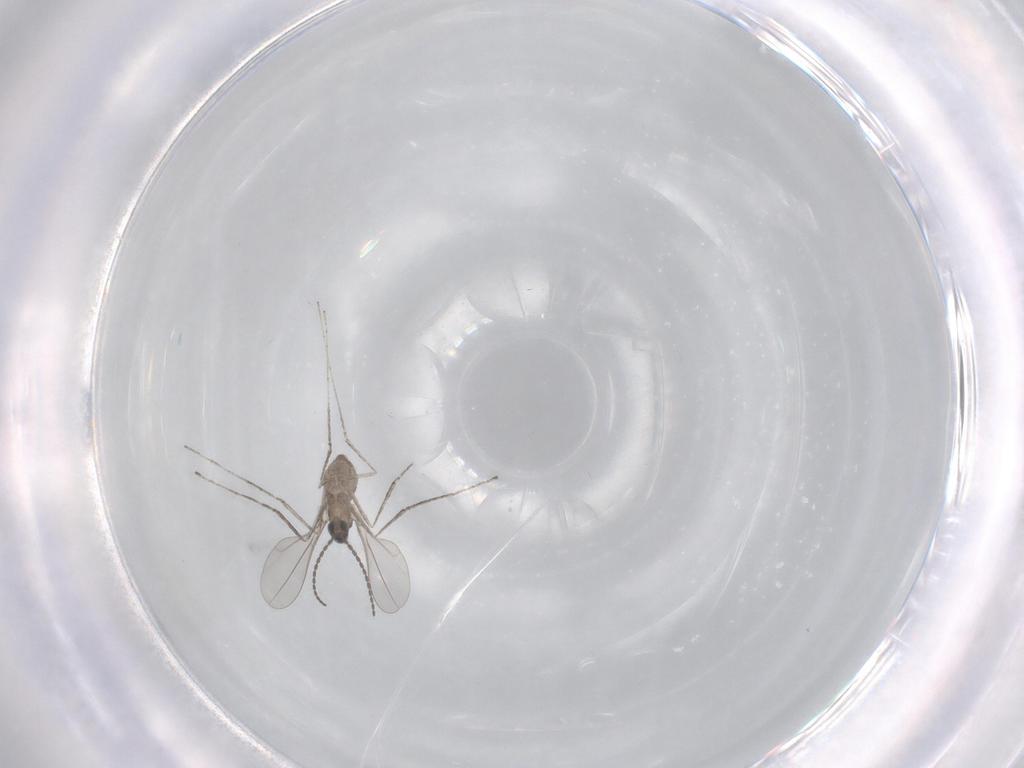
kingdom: Animalia
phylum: Arthropoda
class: Insecta
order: Diptera
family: Cecidomyiidae
